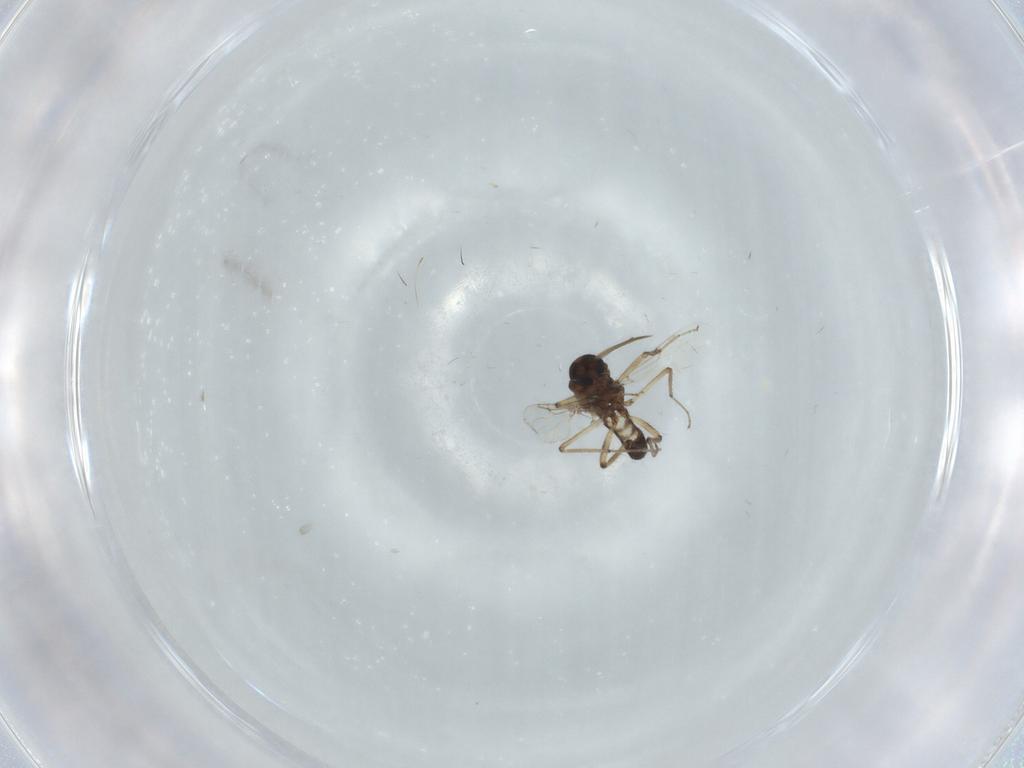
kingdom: Animalia
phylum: Arthropoda
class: Insecta
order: Diptera
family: Ceratopogonidae
